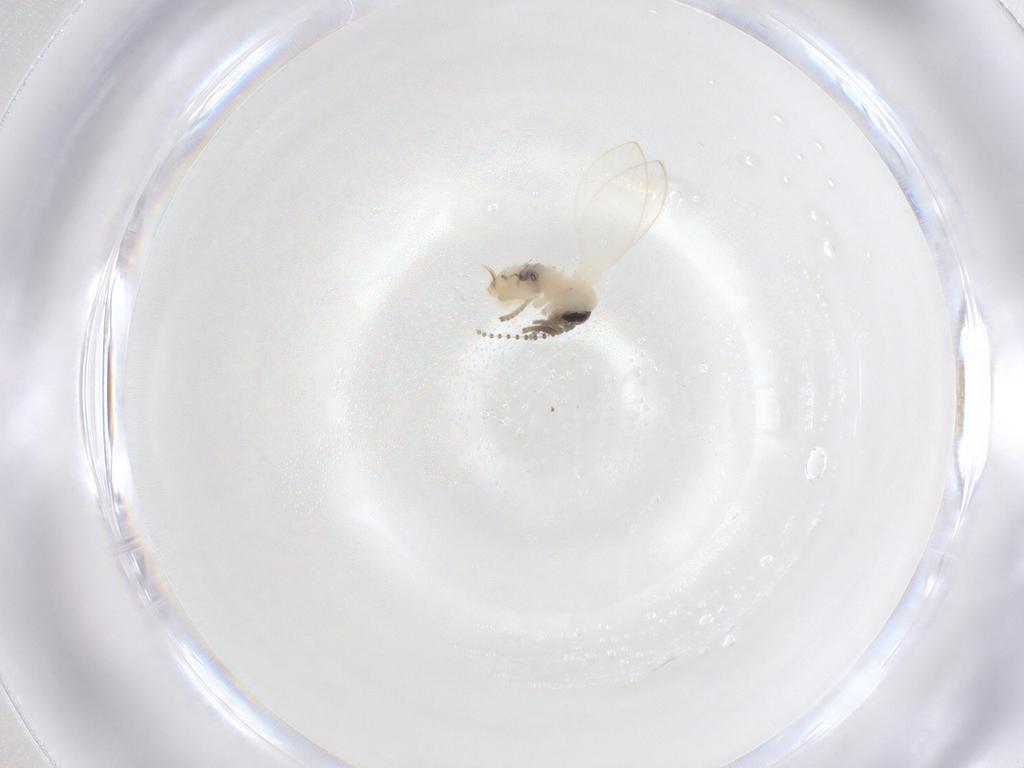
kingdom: Animalia
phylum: Arthropoda
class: Insecta
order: Diptera
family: Psychodidae
